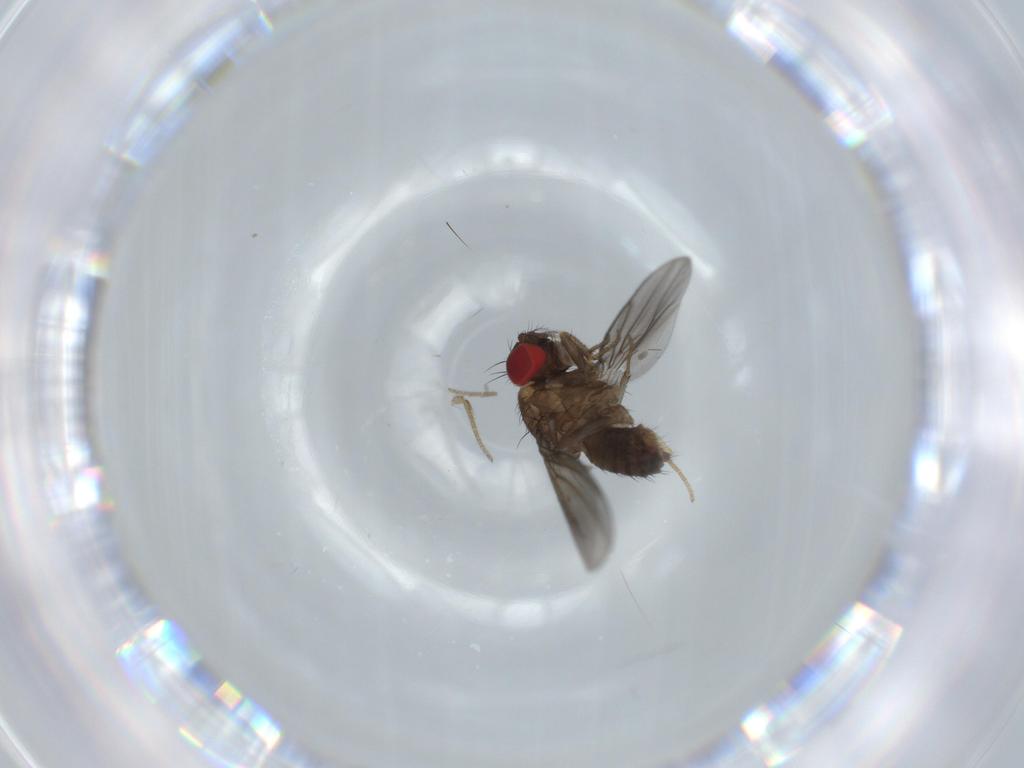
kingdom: Animalia
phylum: Arthropoda
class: Insecta
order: Diptera
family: Drosophilidae
